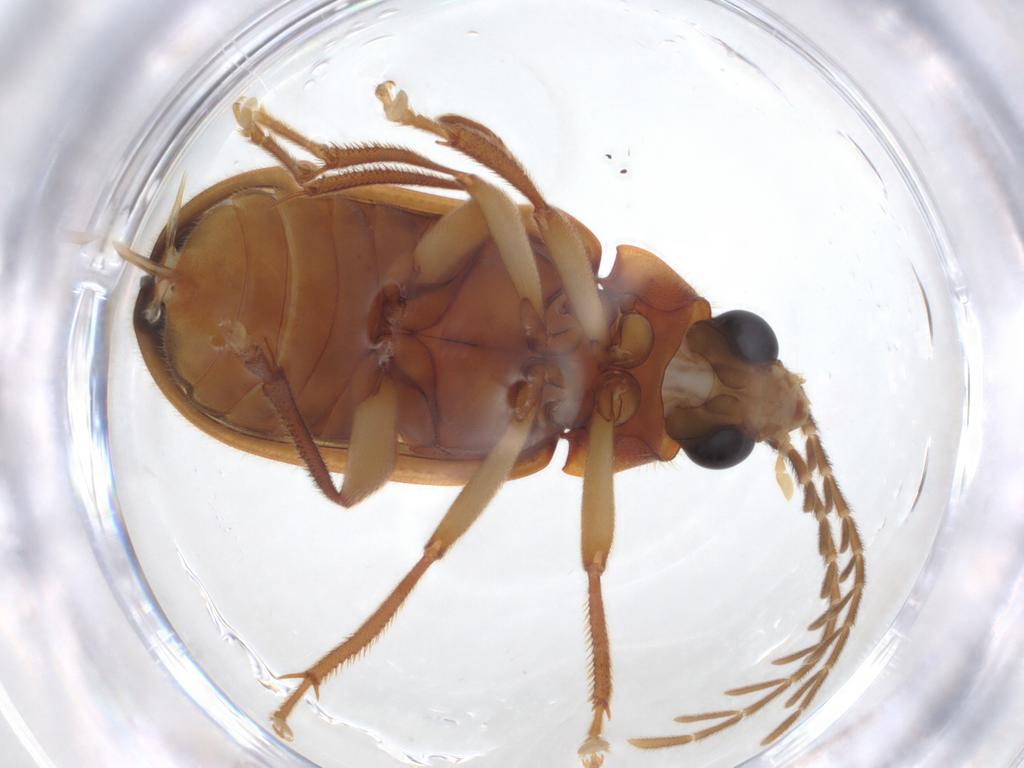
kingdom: Animalia
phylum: Arthropoda
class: Insecta
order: Coleoptera
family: Ptilodactylidae
